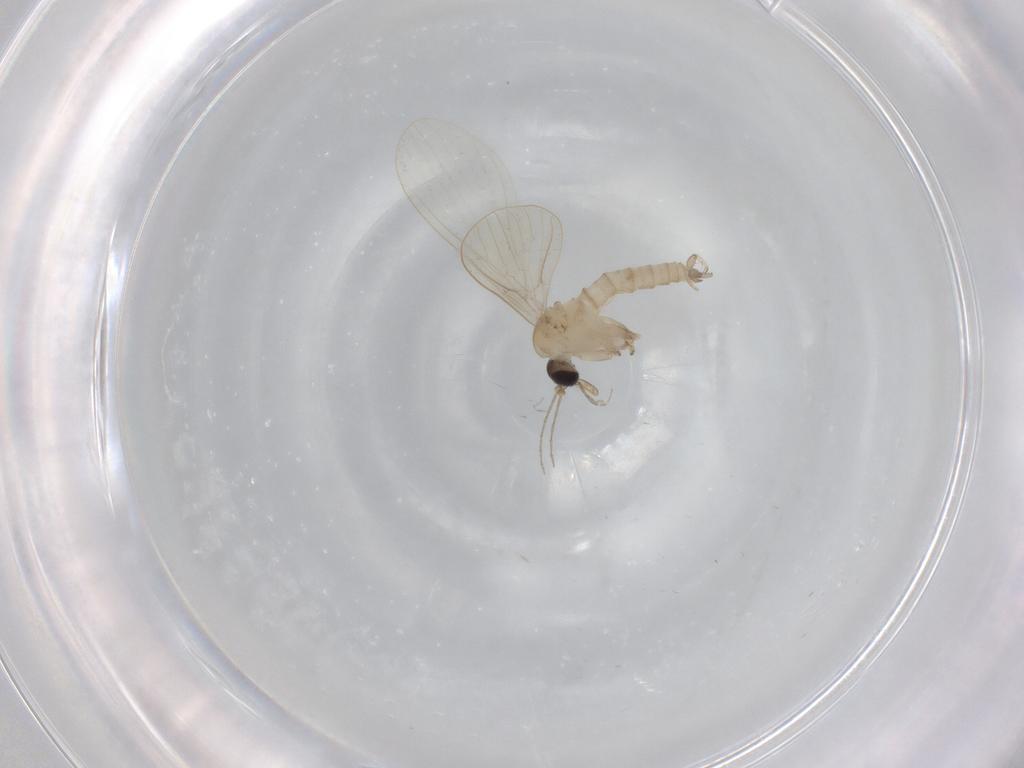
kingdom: Animalia
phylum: Arthropoda
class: Insecta
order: Diptera
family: Psychodidae
